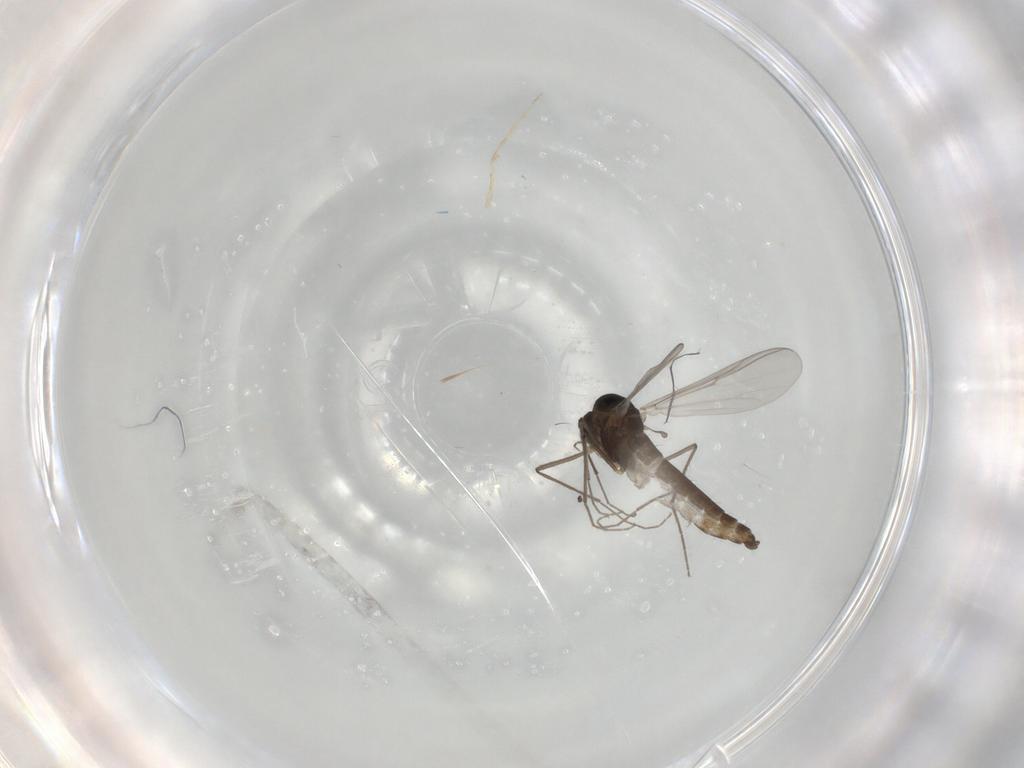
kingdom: Animalia
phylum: Arthropoda
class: Insecta
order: Diptera
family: Chironomidae
